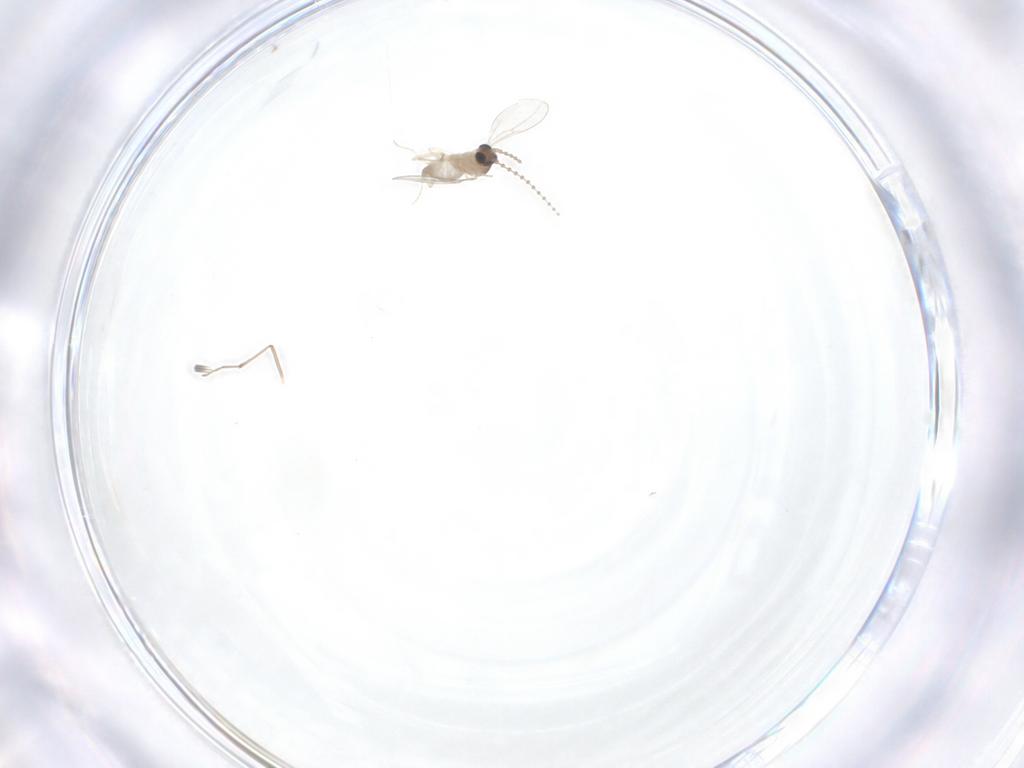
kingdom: Animalia
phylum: Arthropoda
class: Insecta
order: Diptera
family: Cecidomyiidae
